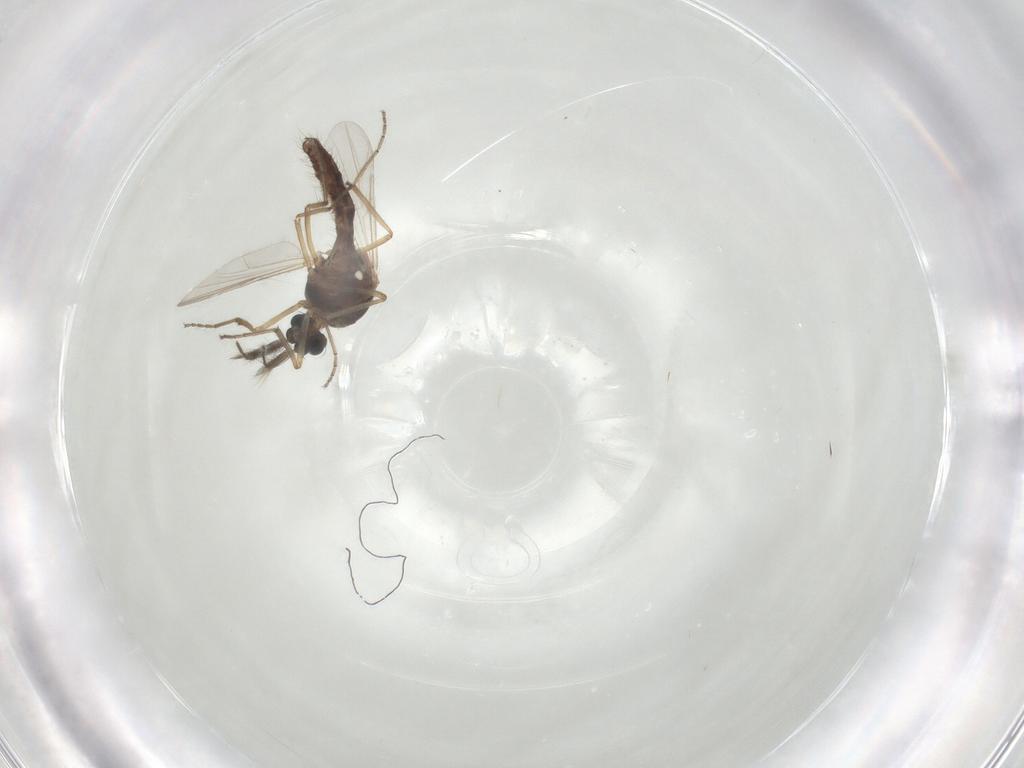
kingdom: Animalia
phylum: Arthropoda
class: Insecta
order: Diptera
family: Ceratopogonidae
